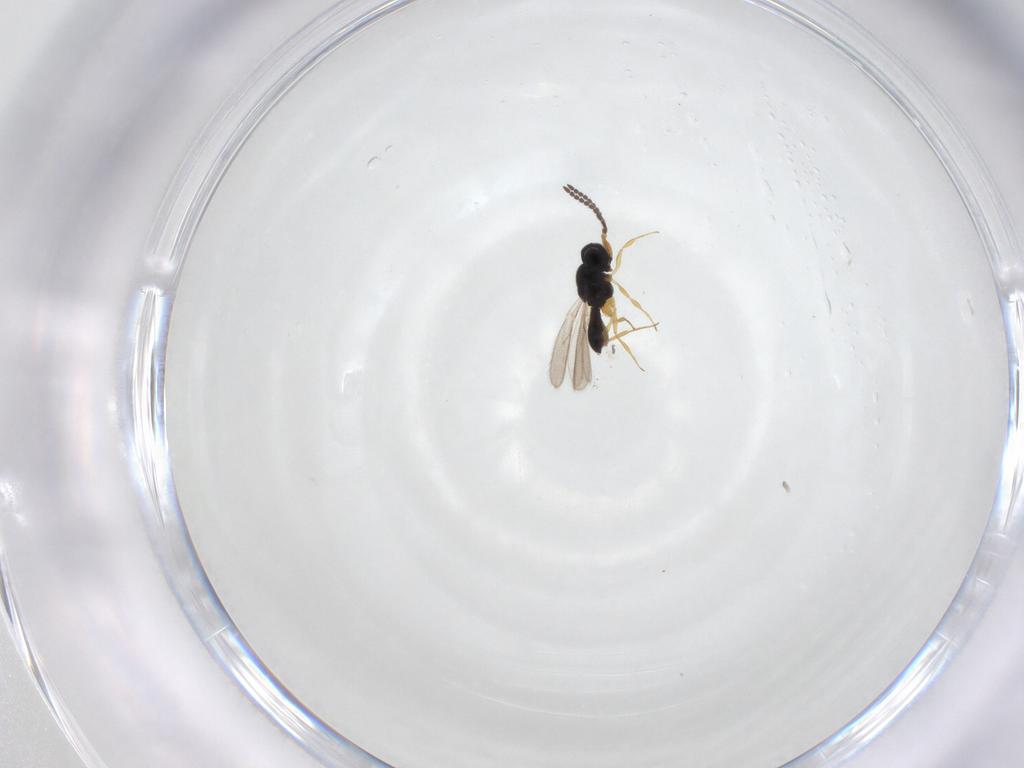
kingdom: Animalia
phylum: Arthropoda
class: Insecta
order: Hymenoptera
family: Scelionidae
